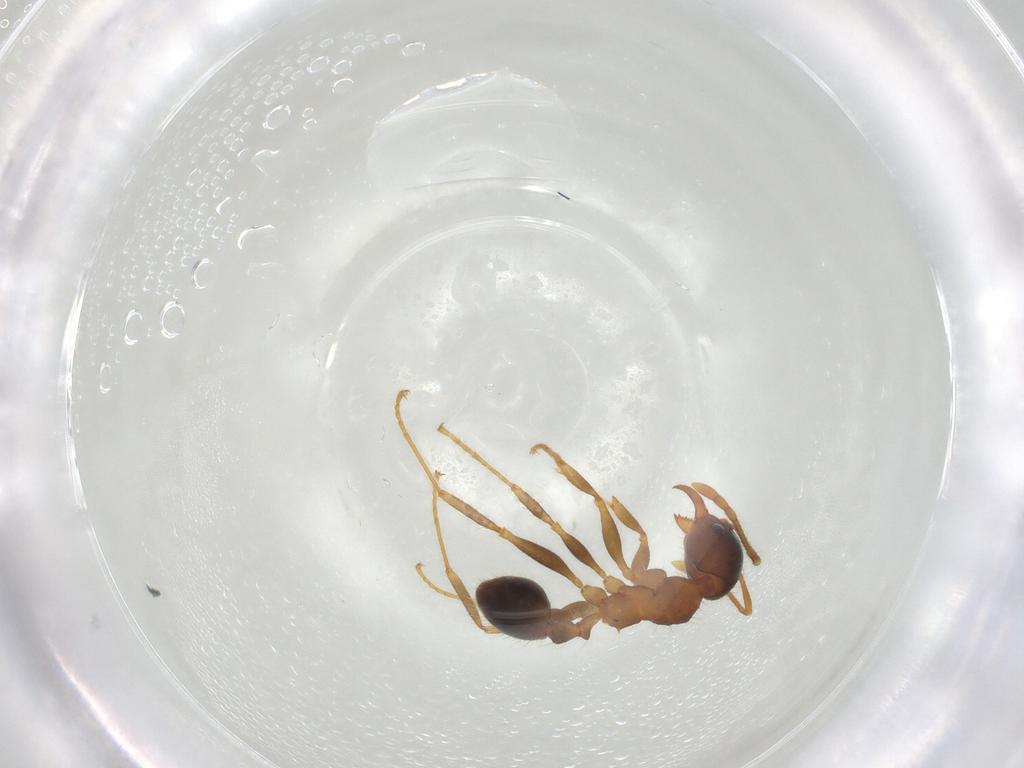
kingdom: Animalia
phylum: Arthropoda
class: Insecta
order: Hymenoptera
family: Formicidae
